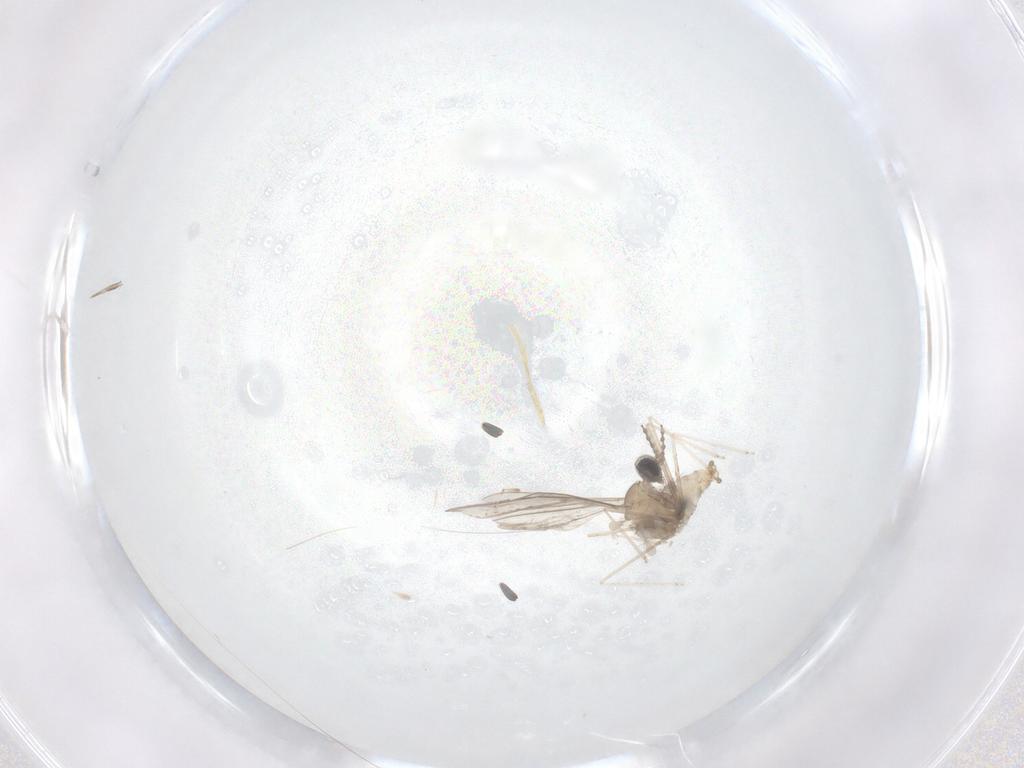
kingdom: Animalia
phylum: Arthropoda
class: Insecta
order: Diptera
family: Cecidomyiidae
